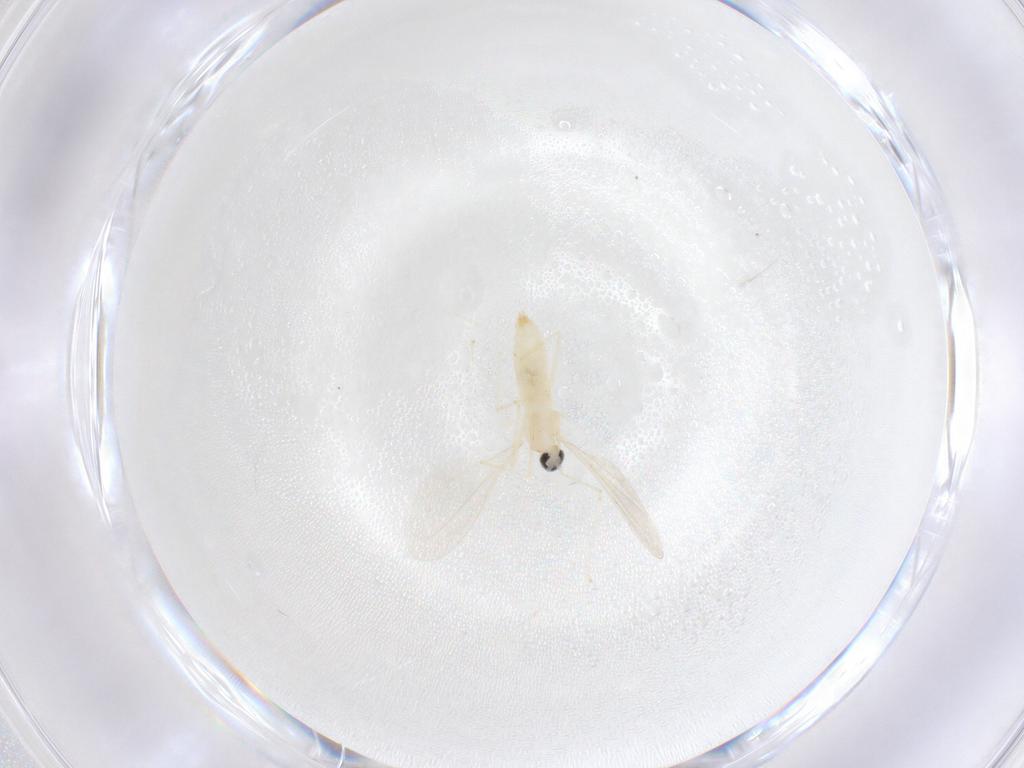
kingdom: Animalia
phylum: Arthropoda
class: Insecta
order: Diptera
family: Cecidomyiidae
